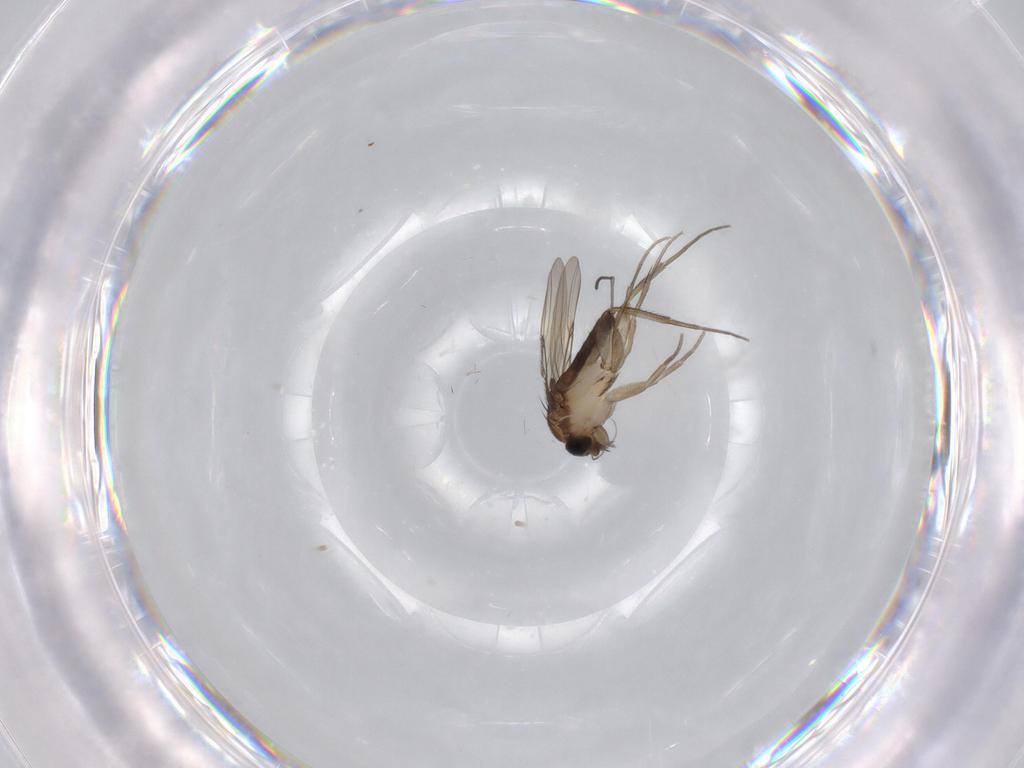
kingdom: Animalia
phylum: Arthropoda
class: Insecta
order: Diptera
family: Phoridae
